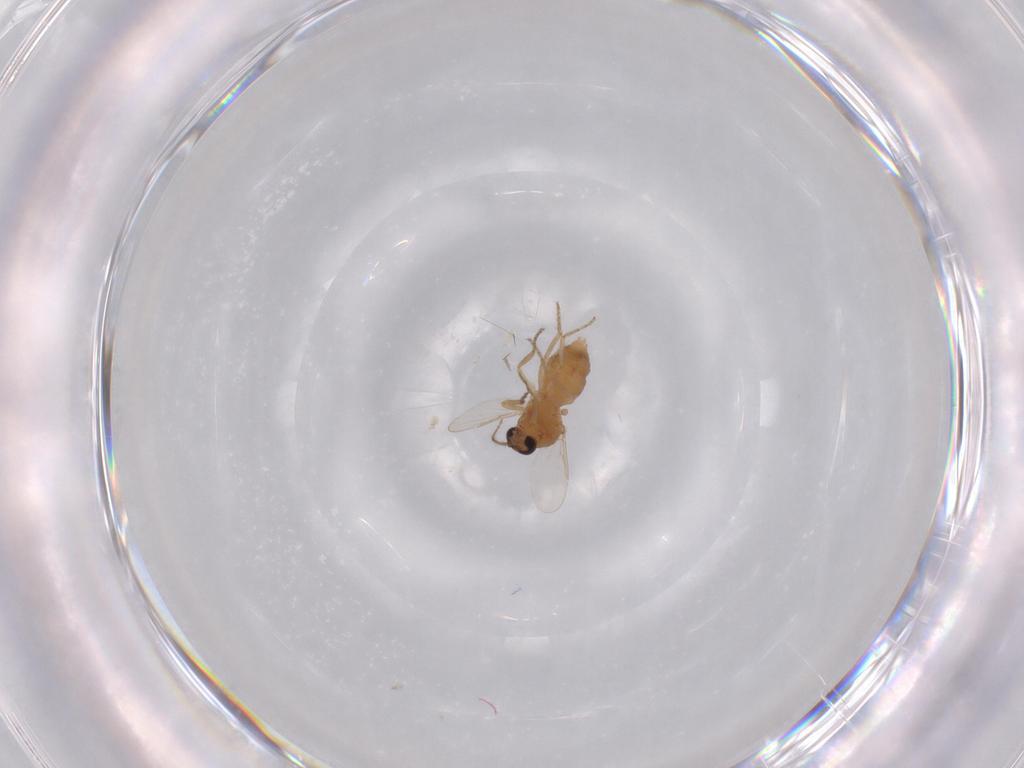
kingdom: Animalia
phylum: Arthropoda
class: Insecta
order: Diptera
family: Ceratopogonidae
